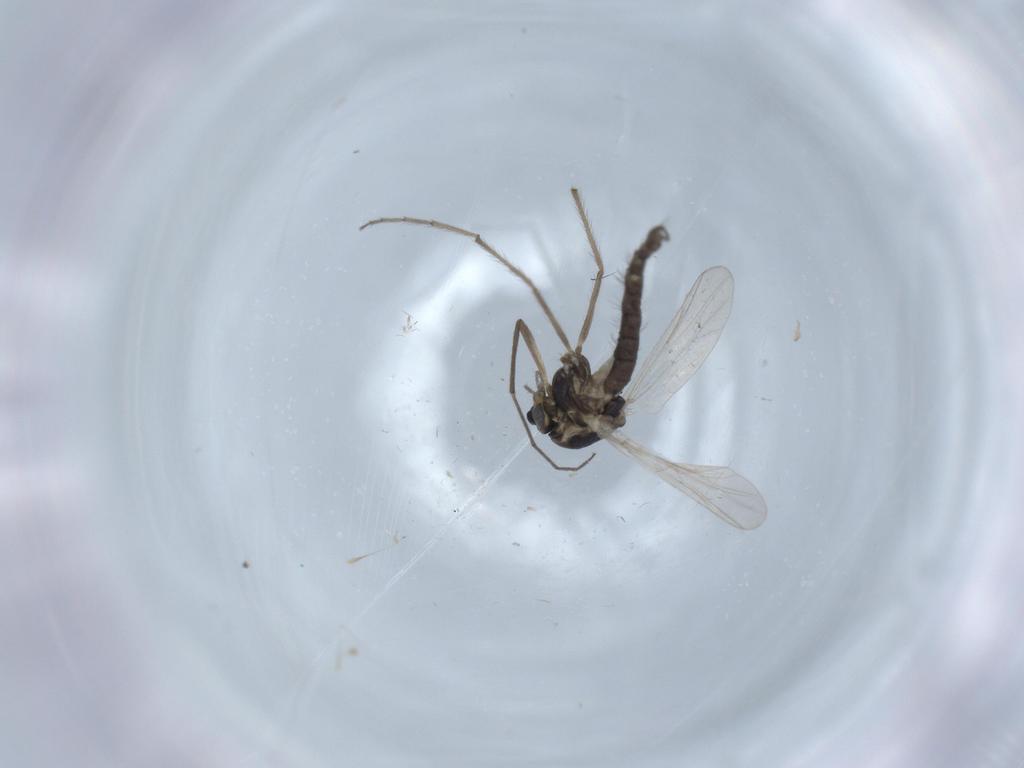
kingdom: Animalia
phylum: Arthropoda
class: Insecta
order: Diptera
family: Chironomidae
